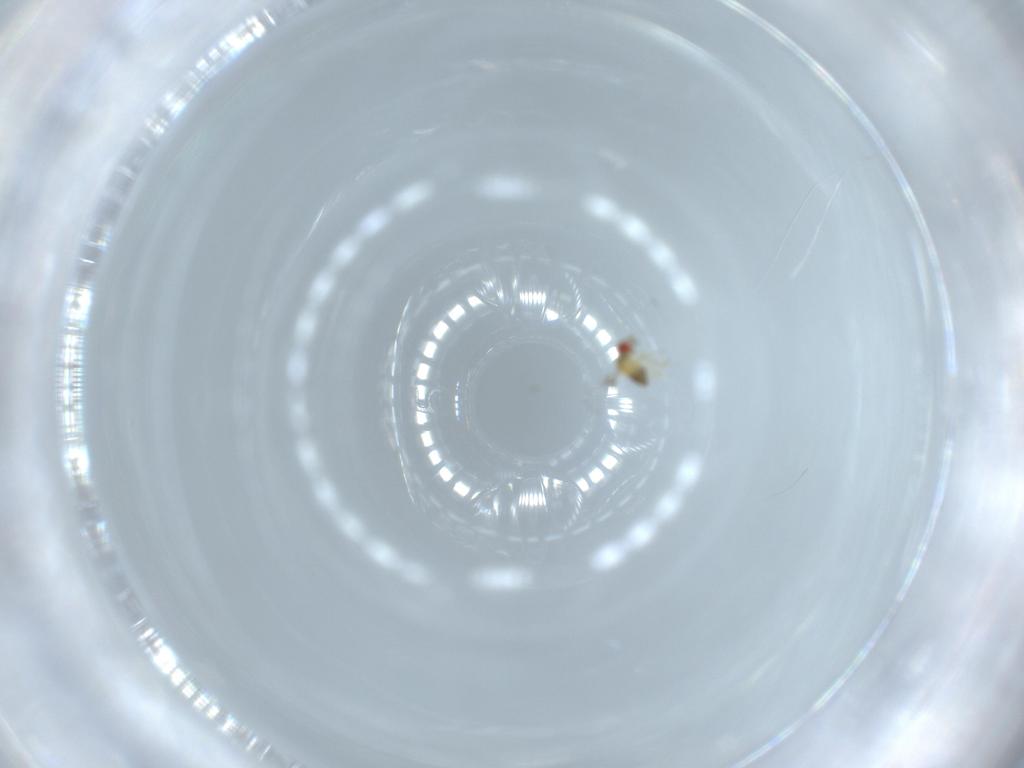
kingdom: Animalia
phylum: Arthropoda
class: Insecta
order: Hymenoptera
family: Trichogrammatidae
